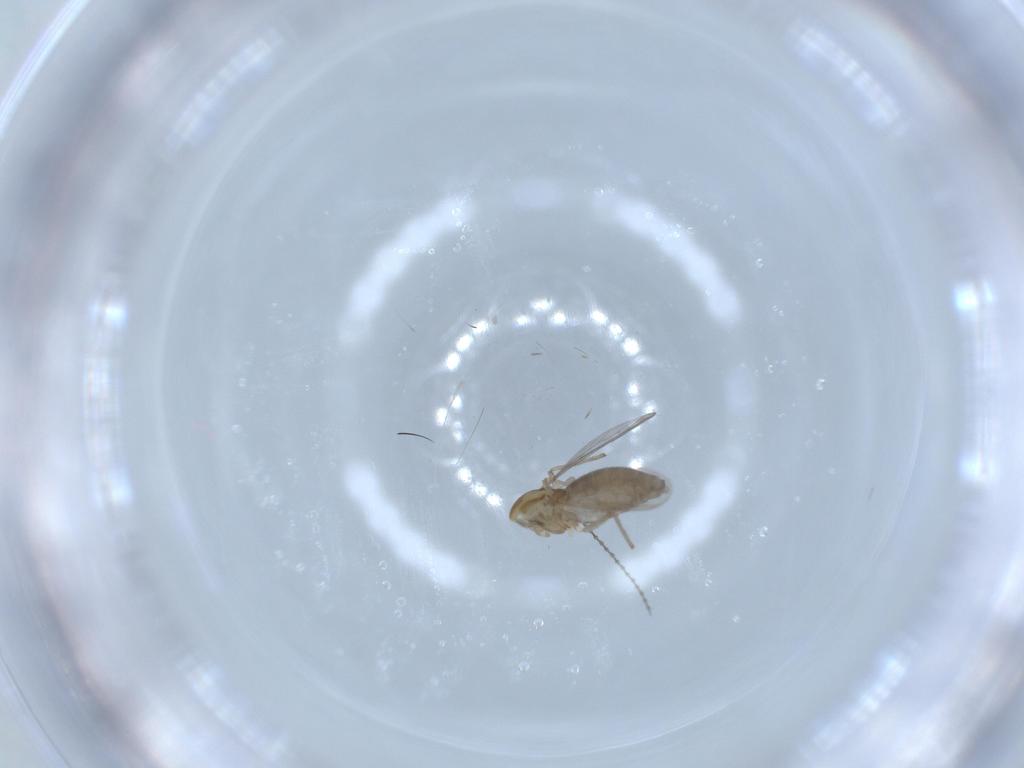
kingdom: Animalia
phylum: Arthropoda
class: Insecta
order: Diptera
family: Chironomidae
